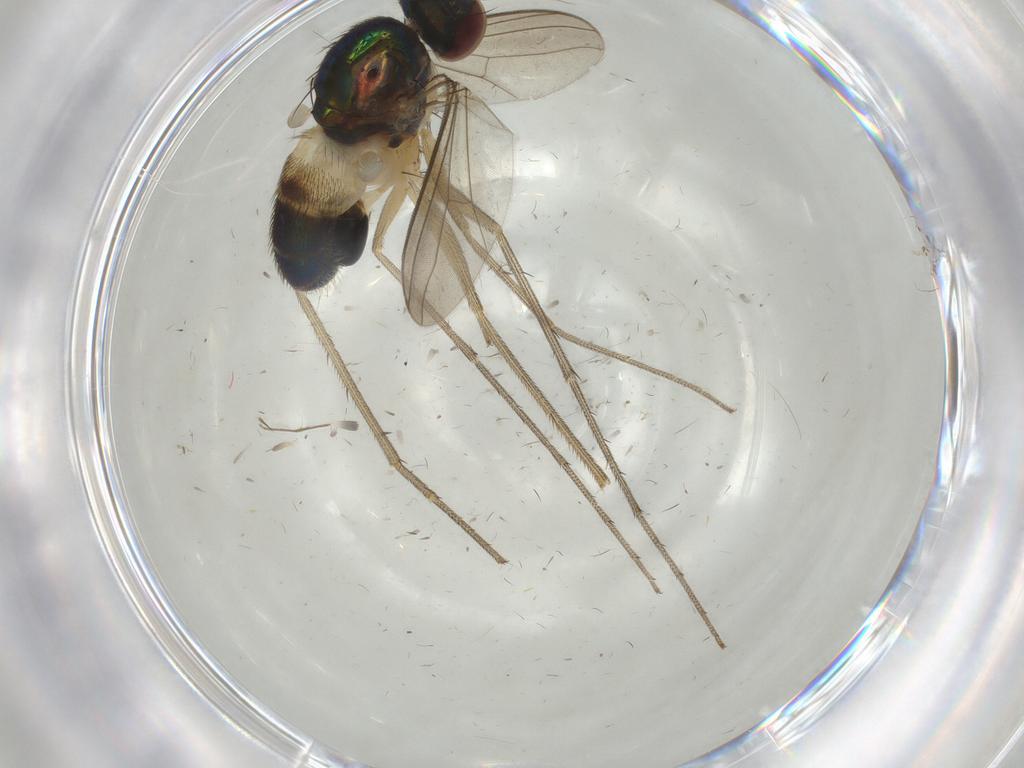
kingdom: Animalia
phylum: Arthropoda
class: Insecta
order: Diptera
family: Dolichopodidae
